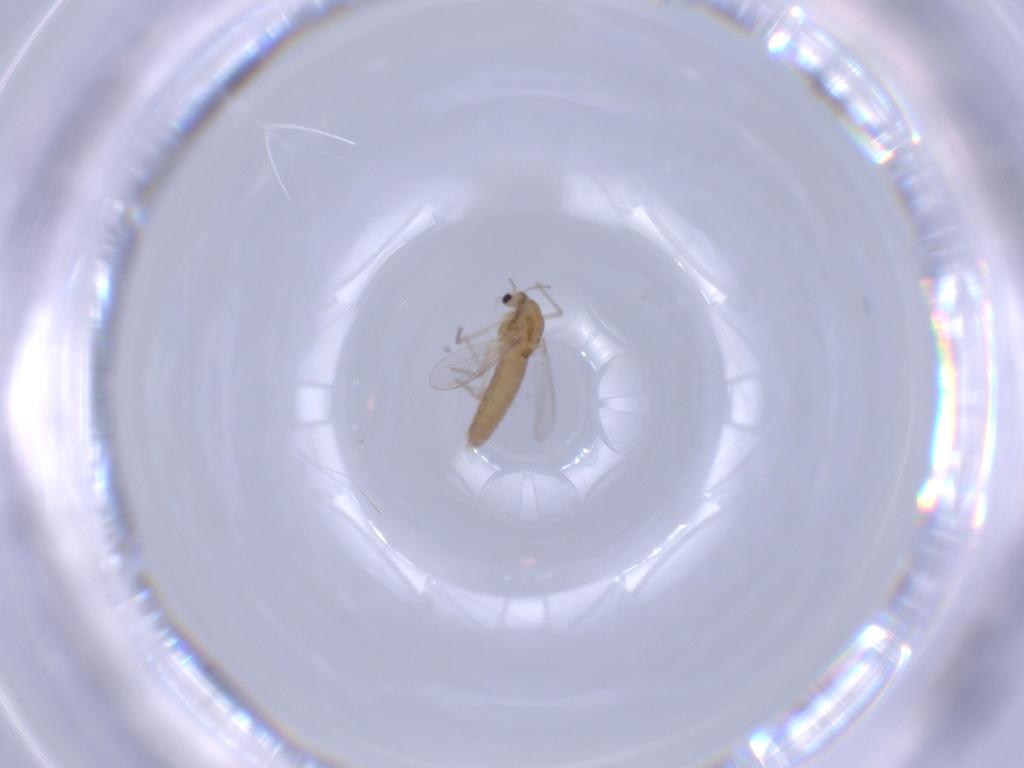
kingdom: Animalia
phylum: Arthropoda
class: Insecta
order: Diptera
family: Chironomidae
